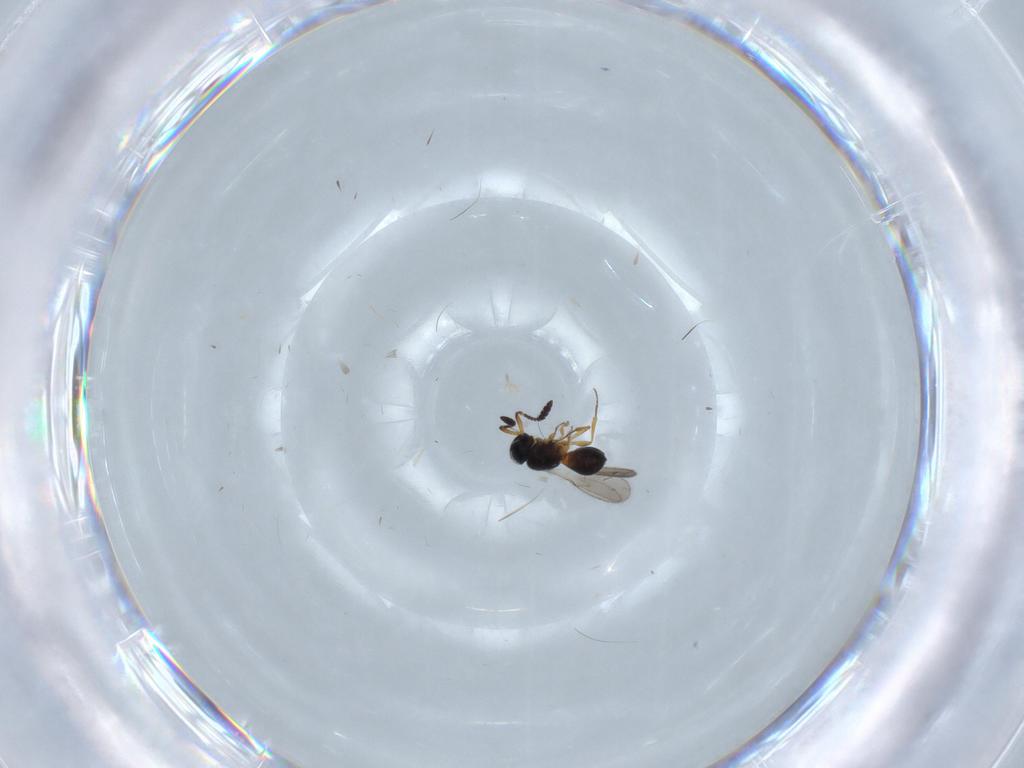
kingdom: Animalia
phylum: Arthropoda
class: Insecta
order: Hymenoptera
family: Scelionidae
